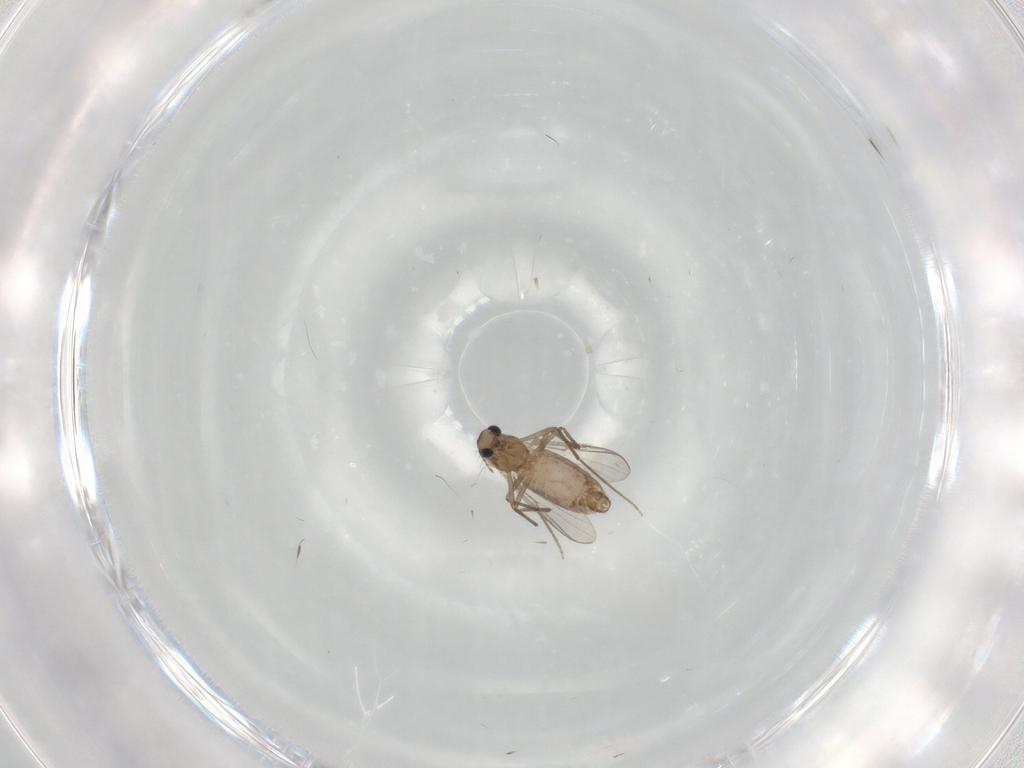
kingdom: Animalia
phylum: Arthropoda
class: Insecta
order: Diptera
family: Chironomidae
